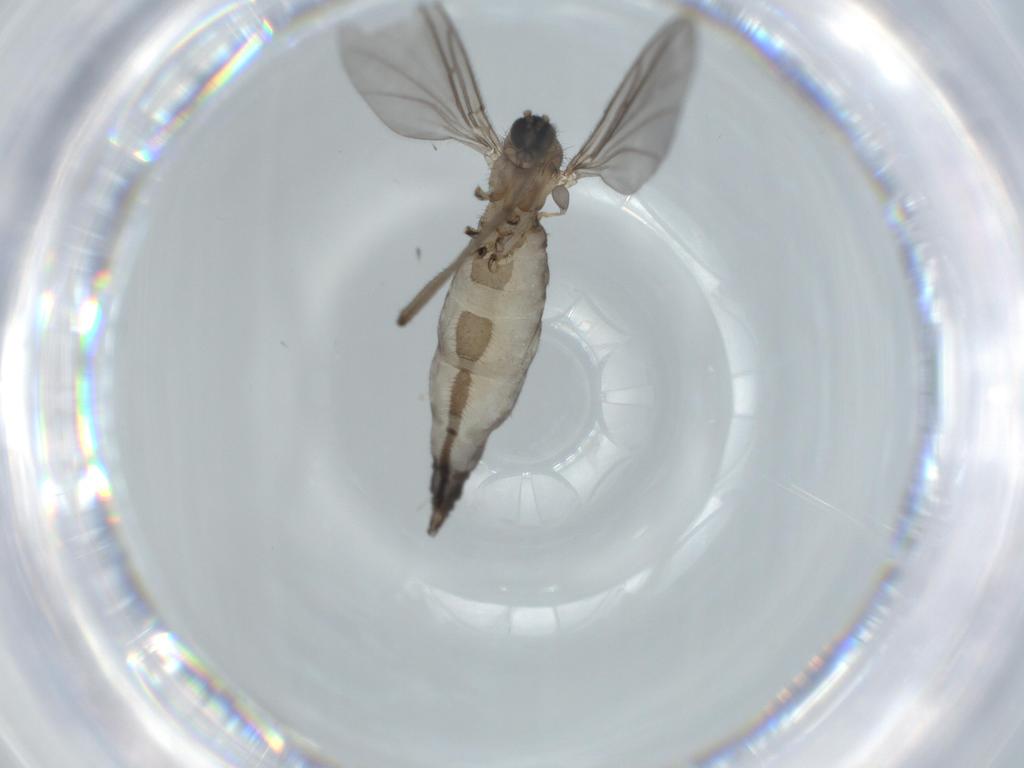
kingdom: Animalia
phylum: Arthropoda
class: Insecta
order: Diptera
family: Sciaridae
